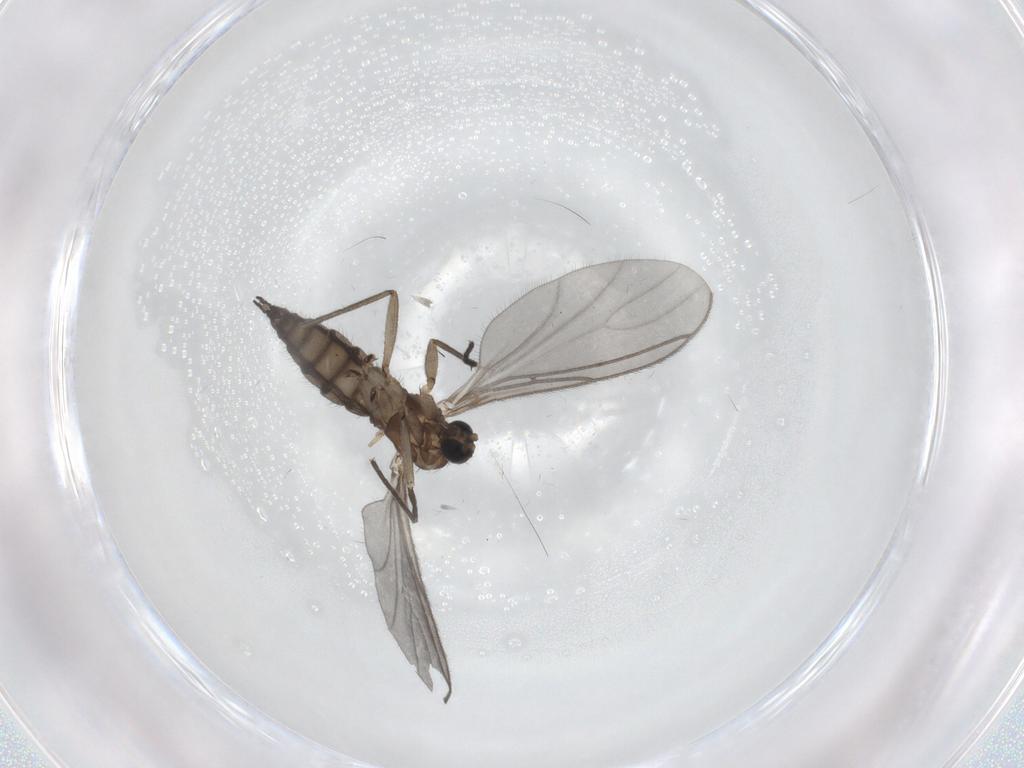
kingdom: Animalia
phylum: Arthropoda
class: Insecta
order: Diptera
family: Sciaridae
